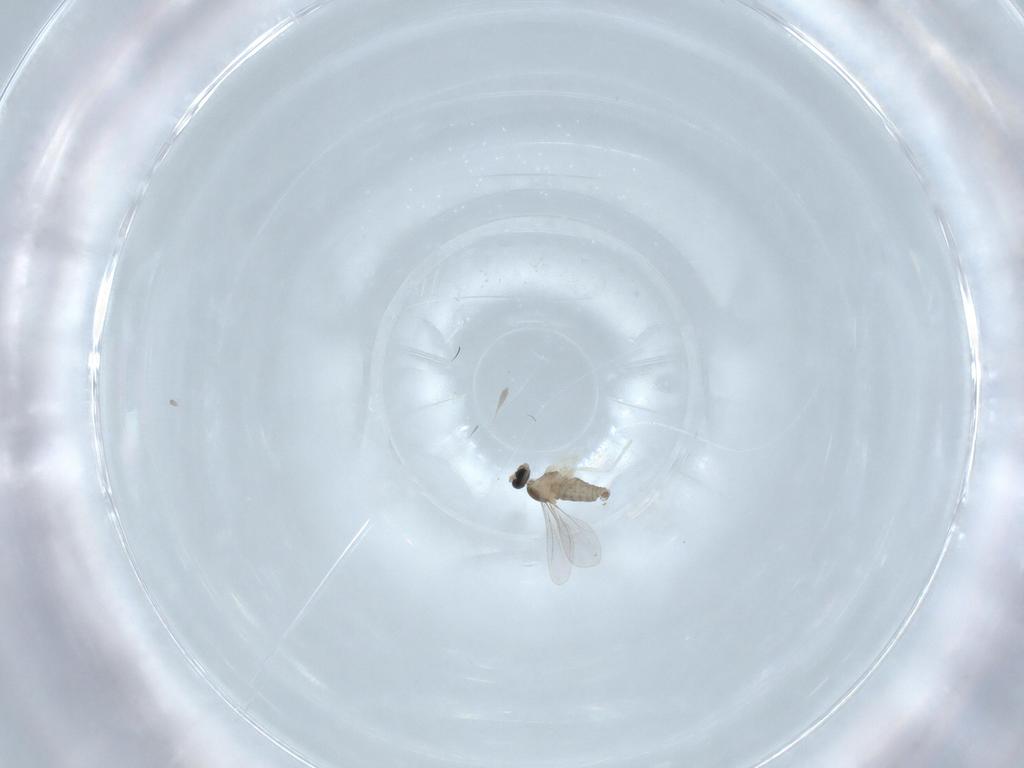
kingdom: Animalia
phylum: Arthropoda
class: Insecta
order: Diptera
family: Cecidomyiidae
